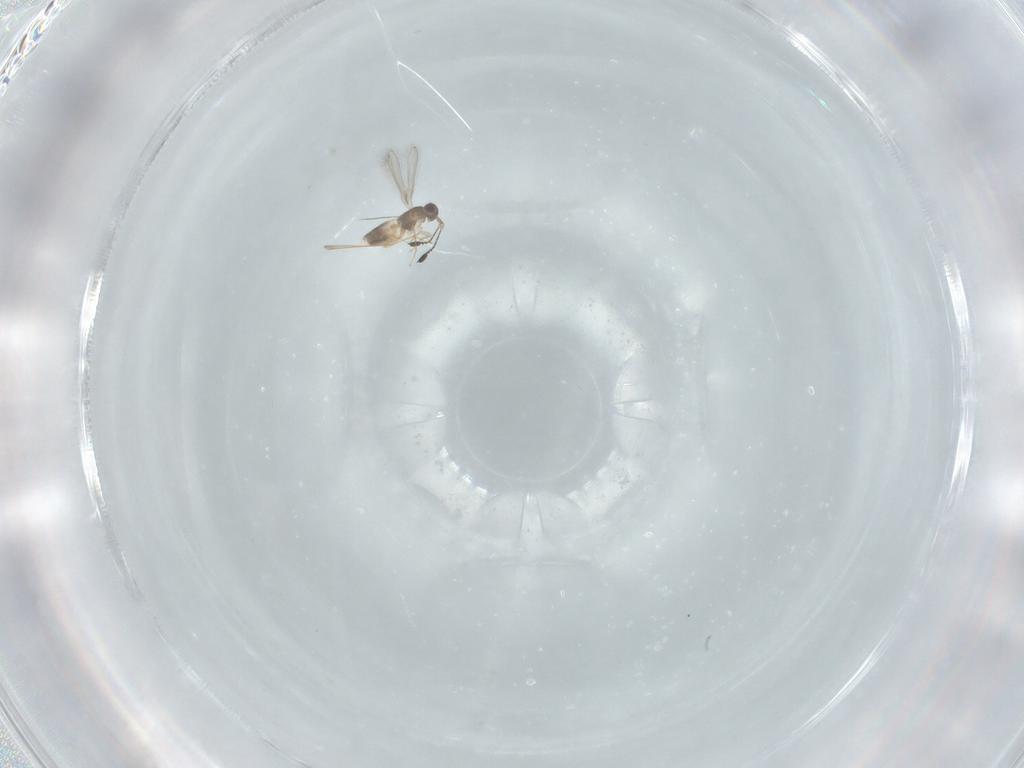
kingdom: Animalia
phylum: Arthropoda
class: Insecta
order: Hymenoptera
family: Mymaridae
